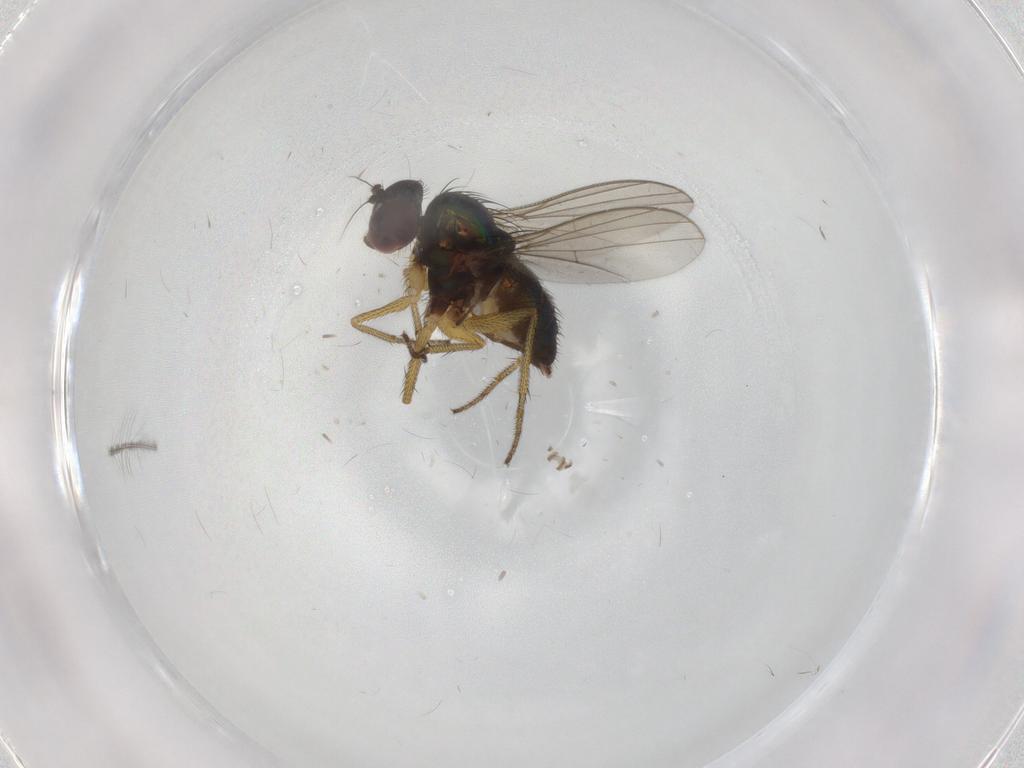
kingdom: Animalia
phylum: Arthropoda
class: Insecta
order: Diptera
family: Dolichopodidae
